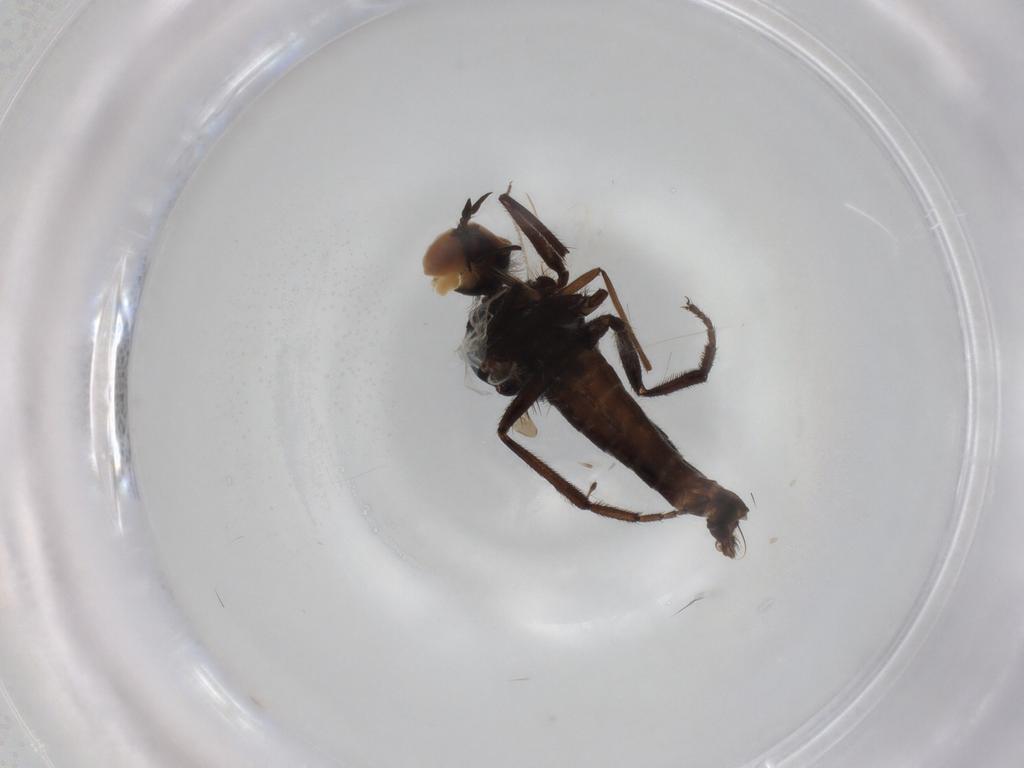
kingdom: Animalia
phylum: Arthropoda
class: Insecta
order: Diptera
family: Empididae
